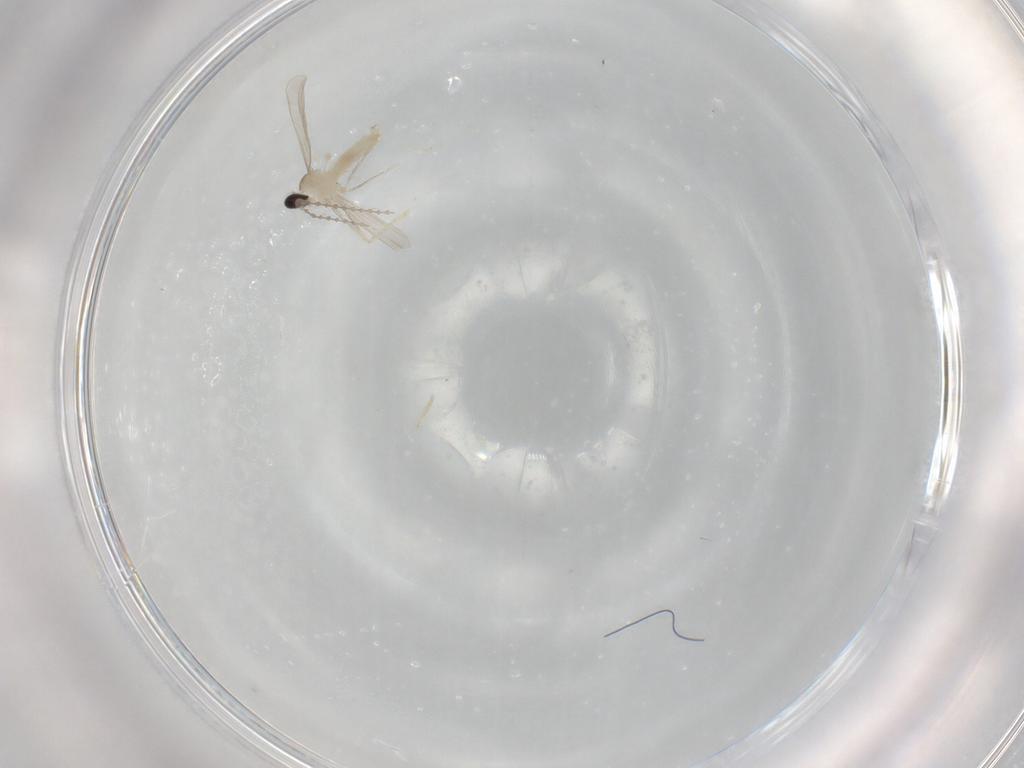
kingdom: Animalia
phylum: Arthropoda
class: Insecta
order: Diptera
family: Cecidomyiidae
